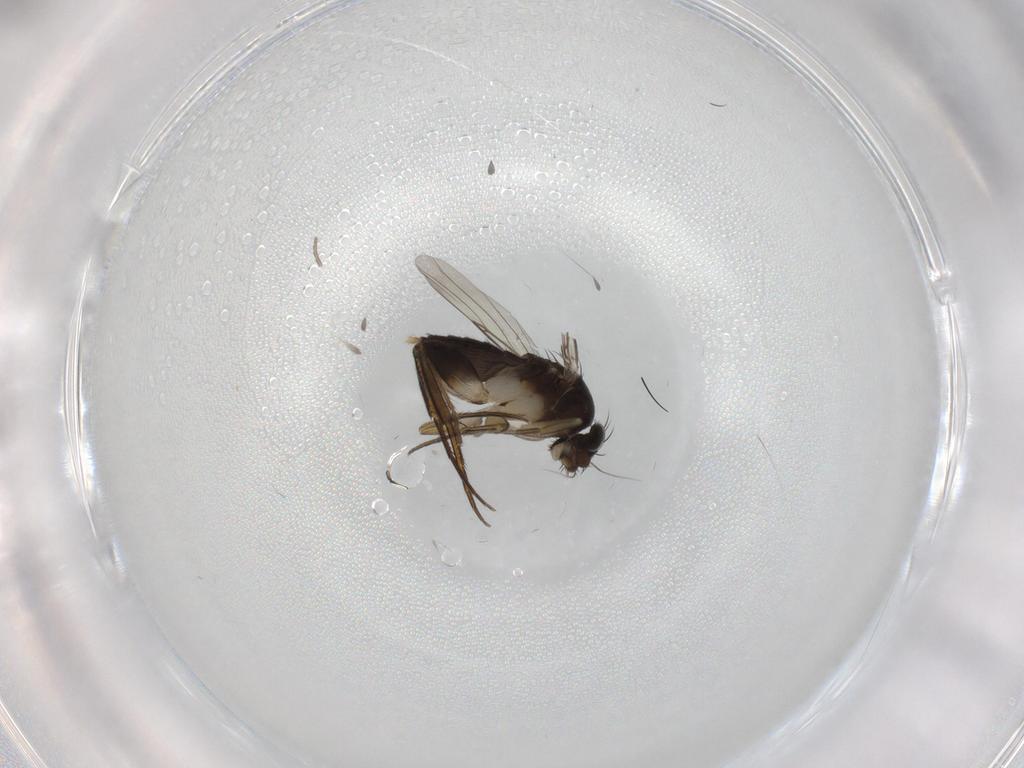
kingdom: Animalia
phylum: Arthropoda
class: Insecta
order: Diptera
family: Phoridae
